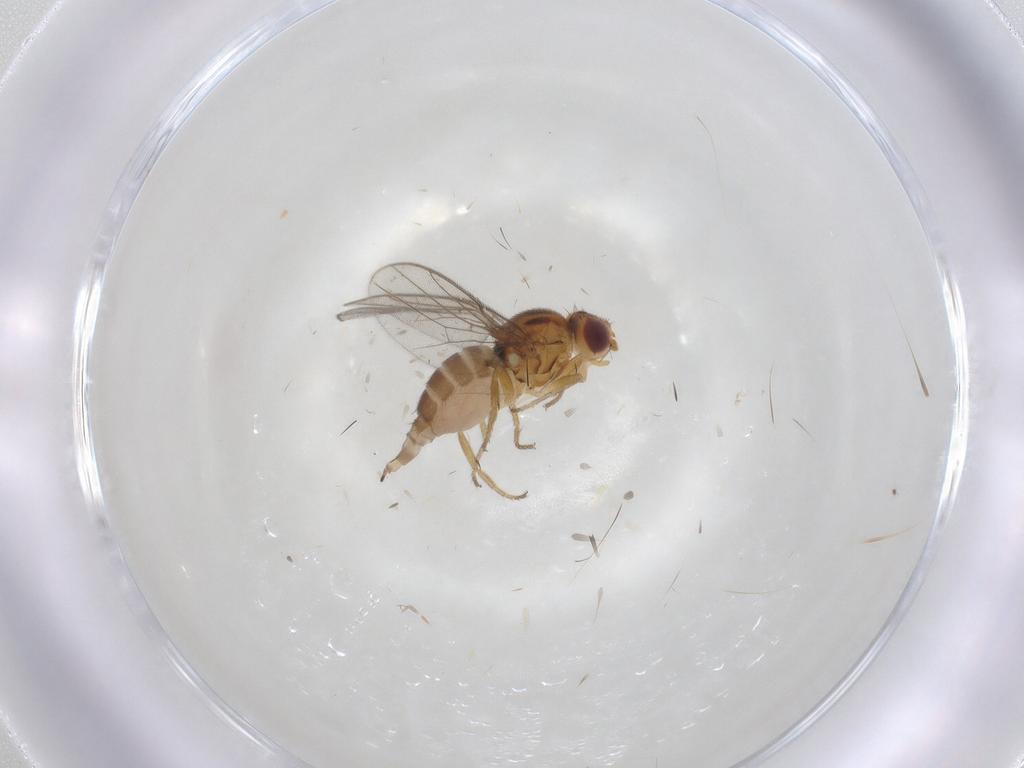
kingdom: Animalia
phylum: Arthropoda
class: Insecta
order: Diptera
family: Chloropidae
